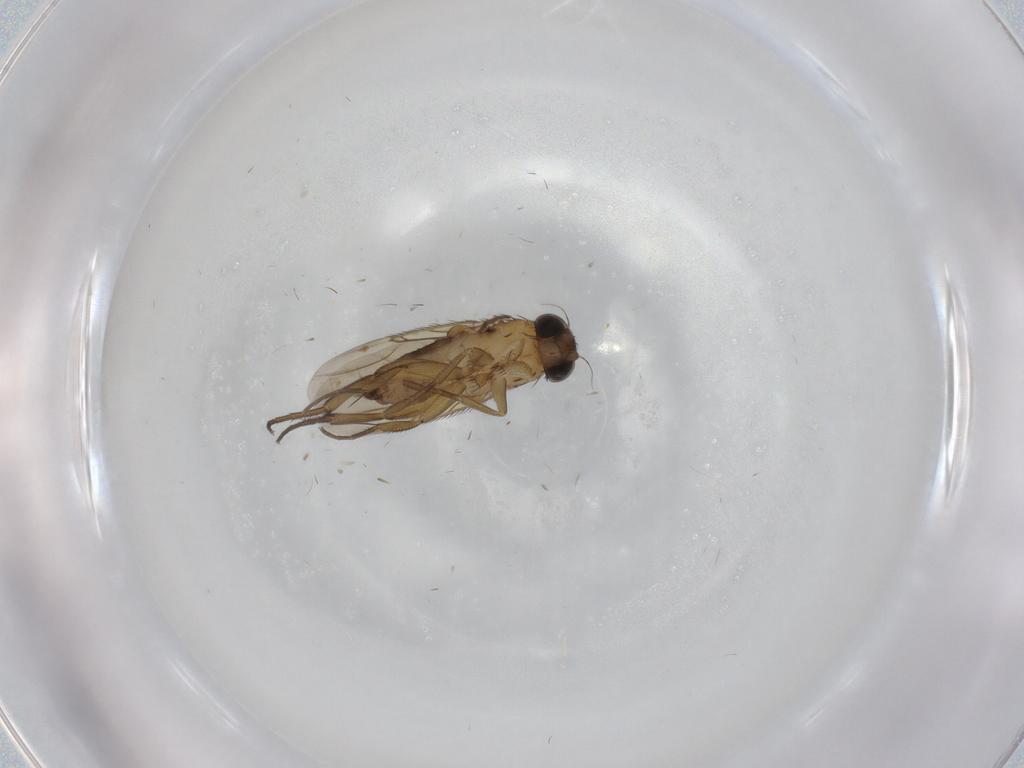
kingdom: Animalia
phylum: Arthropoda
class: Insecta
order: Diptera
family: Phoridae
